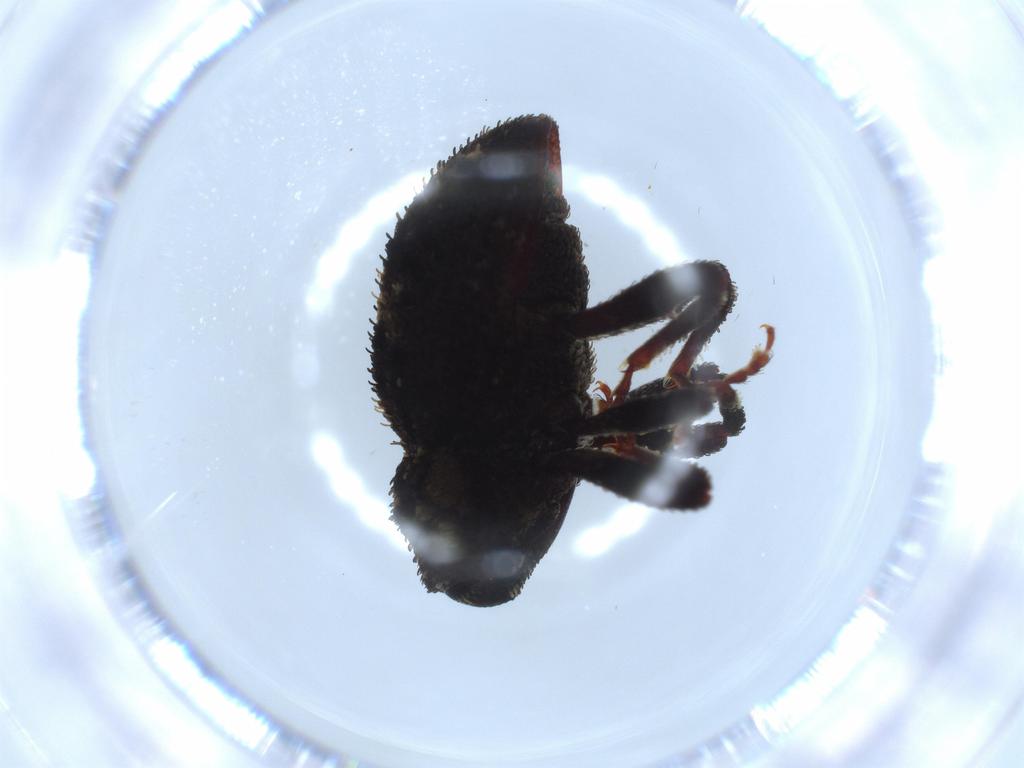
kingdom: Animalia
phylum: Arthropoda
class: Insecta
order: Coleoptera
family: Curculionidae
